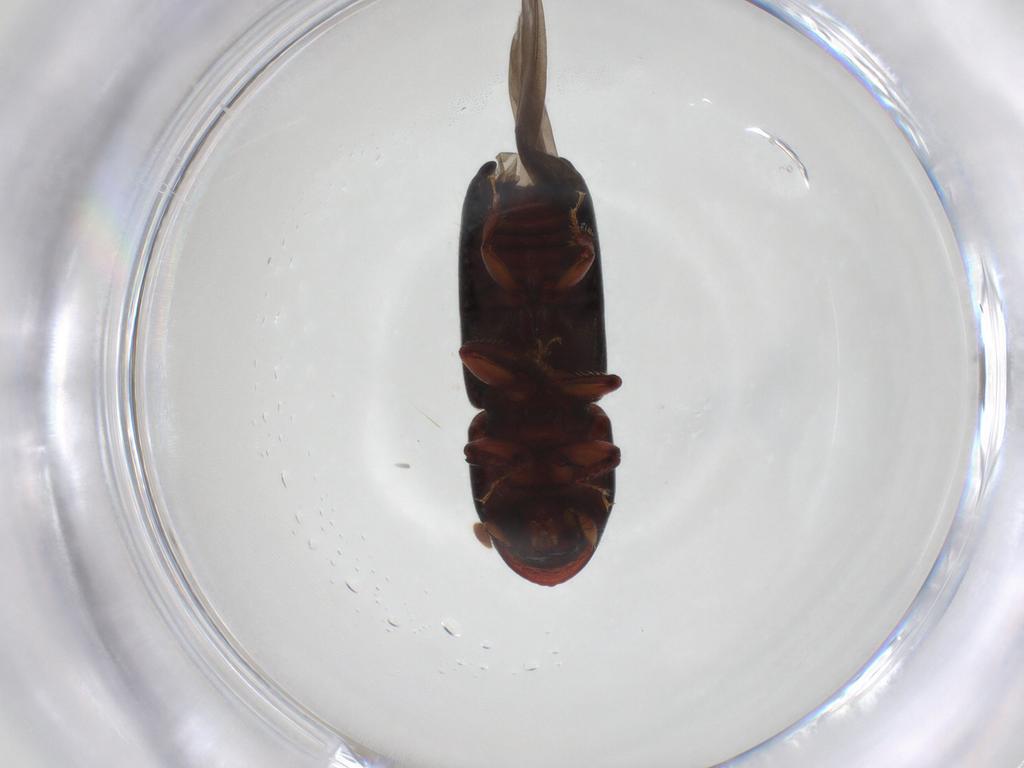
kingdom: Animalia
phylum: Arthropoda
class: Insecta
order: Coleoptera
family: Curculionidae
